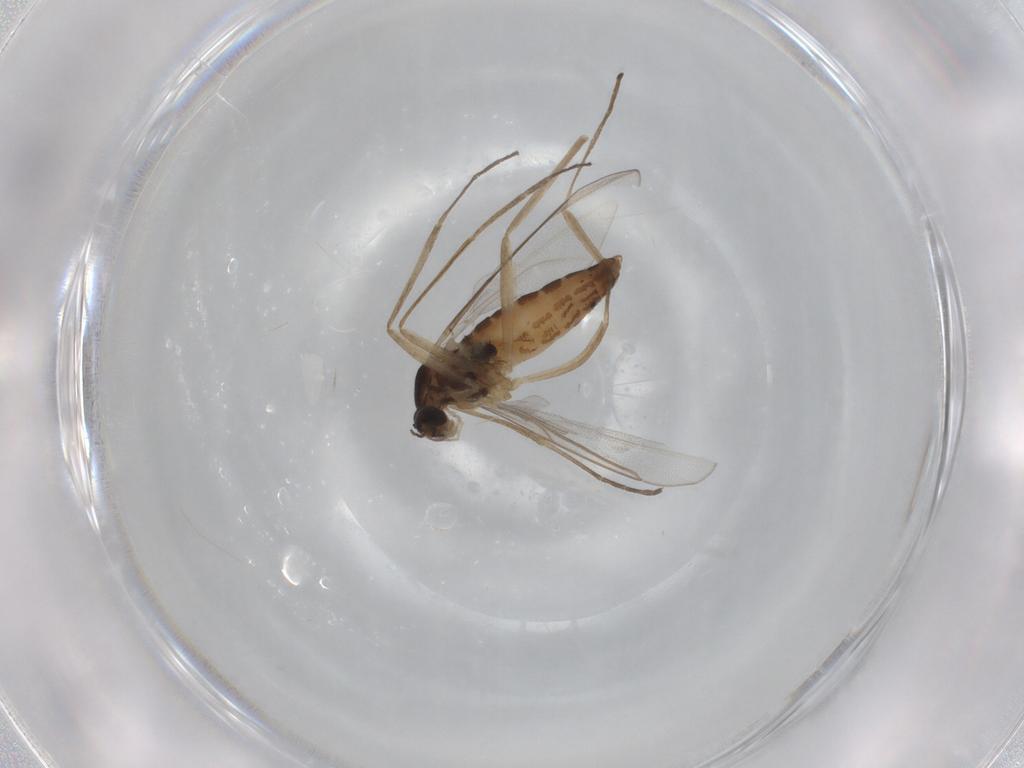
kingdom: Animalia
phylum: Arthropoda
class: Insecta
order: Diptera
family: Cecidomyiidae
